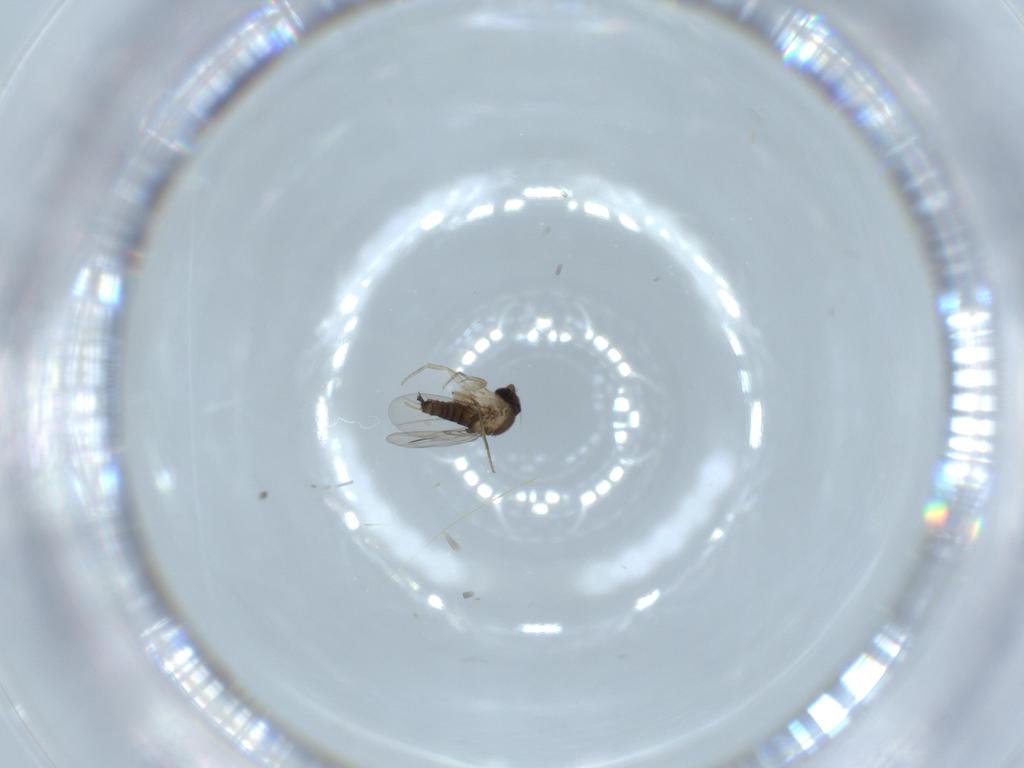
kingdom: Animalia
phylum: Arthropoda
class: Insecta
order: Diptera
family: Phoridae
